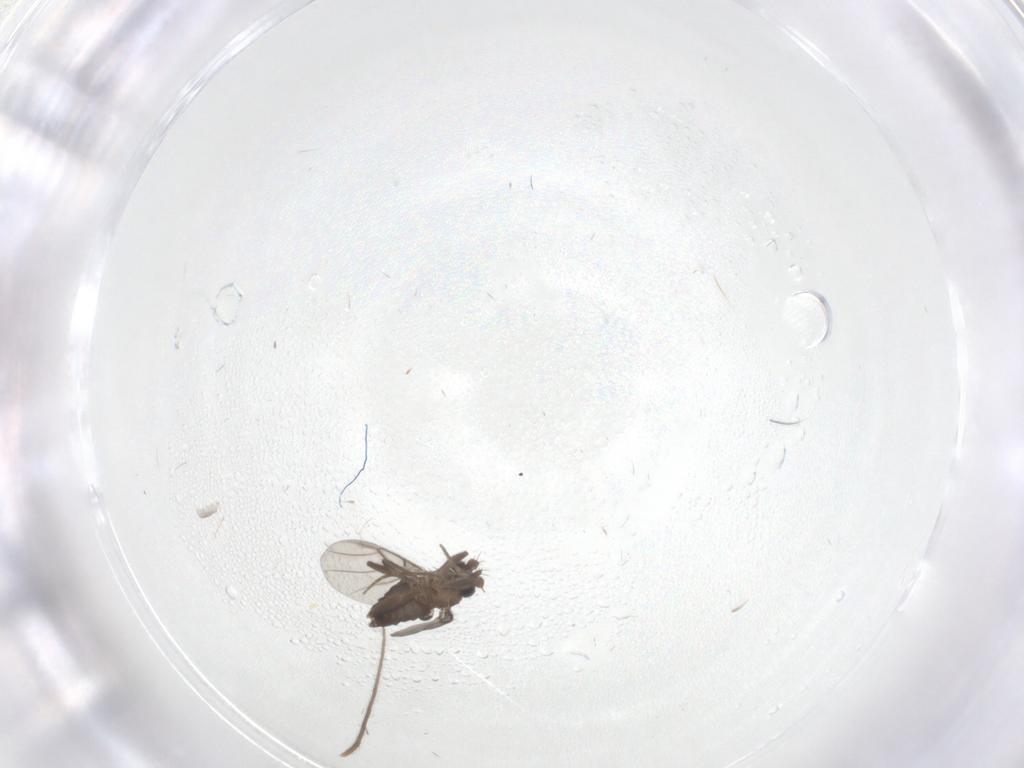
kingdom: Animalia
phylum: Arthropoda
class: Insecta
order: Diptera
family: Phoridae
